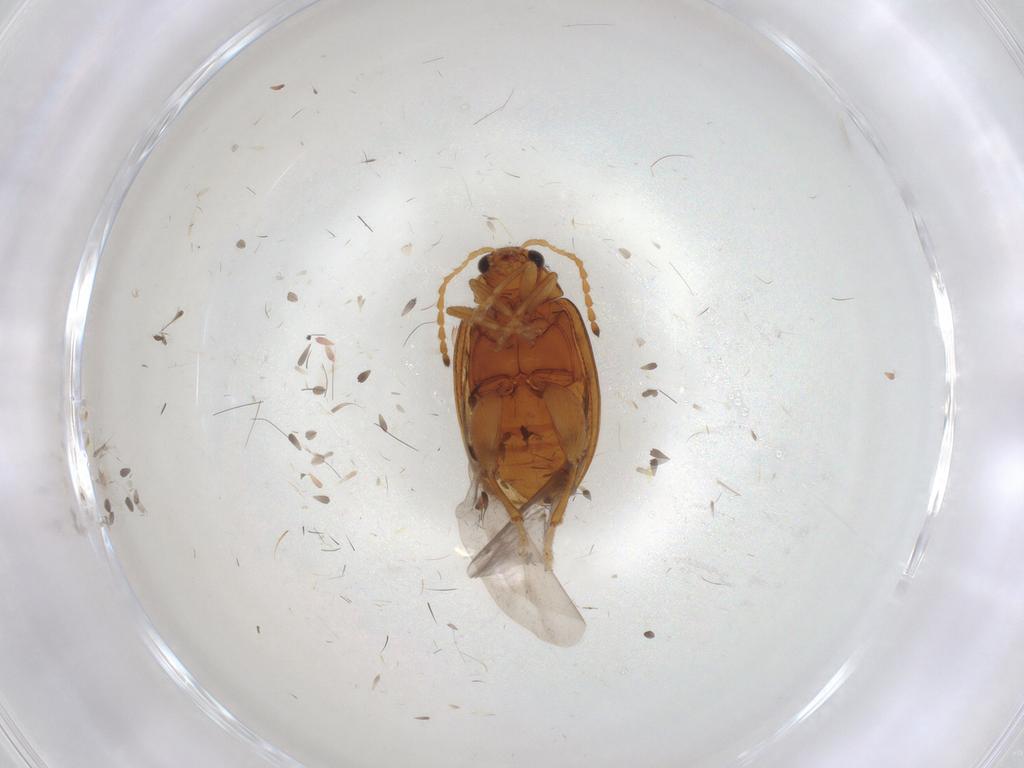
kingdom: Animalia
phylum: Arthropoda
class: Insecta
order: Coleoptera
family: Chrysomelidae
